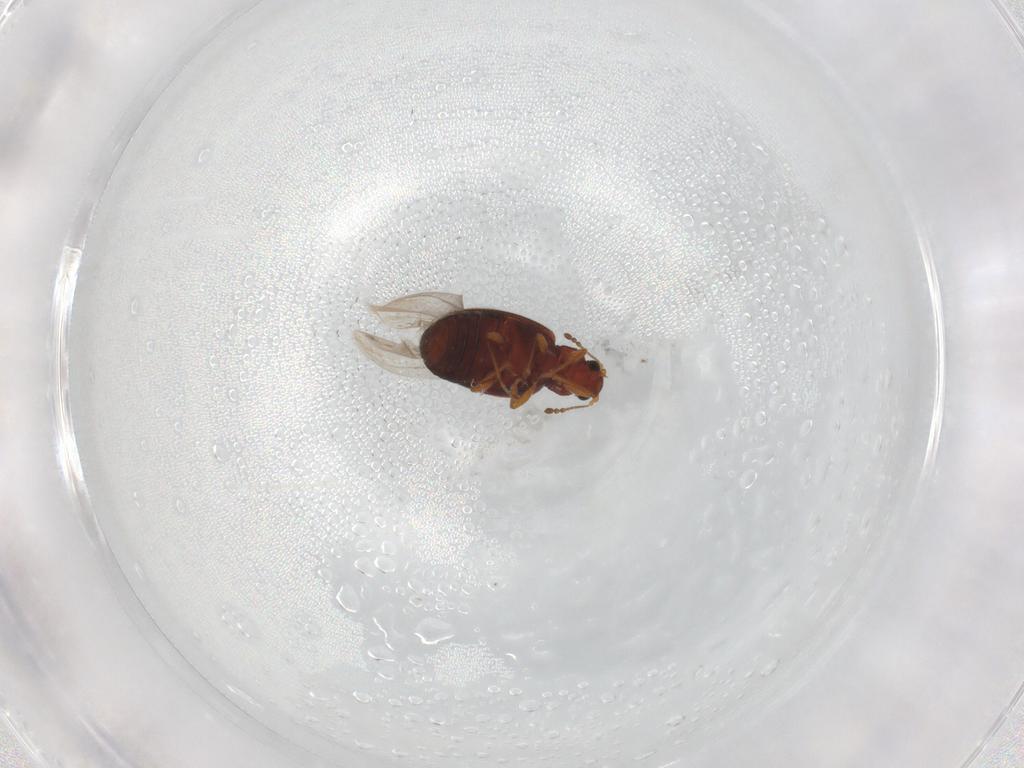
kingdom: Animalia
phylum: Arthropoda
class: Insecta
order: Coleoptera
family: Latridiidae
